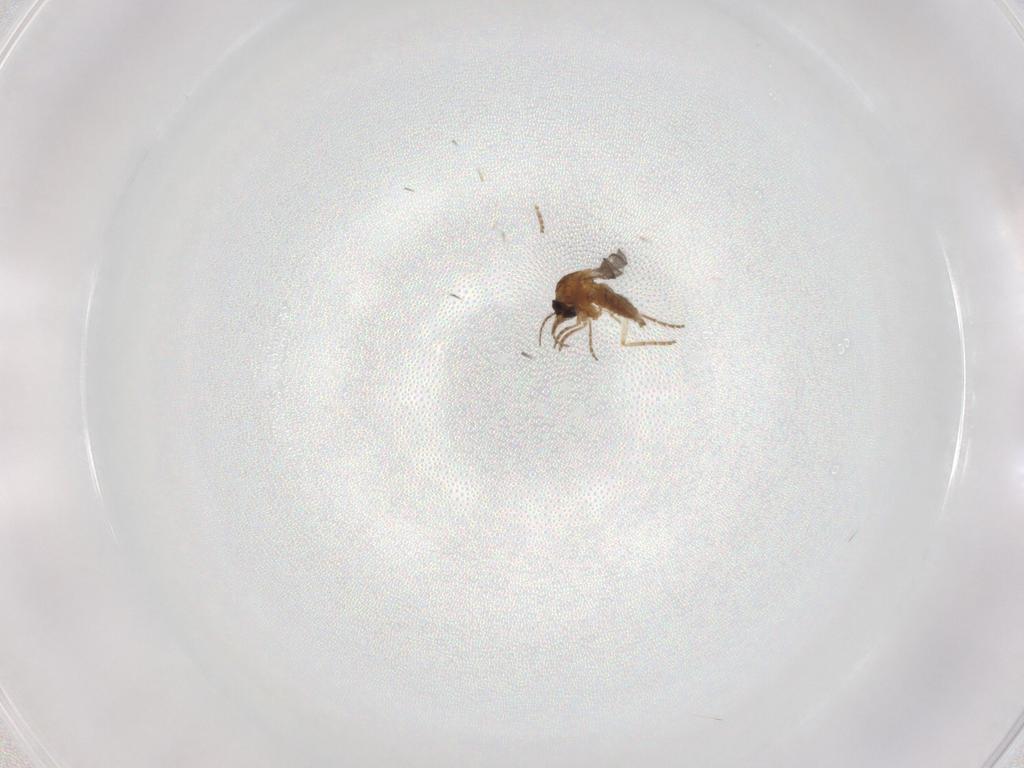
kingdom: Animalia
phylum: Arthropoda
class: Insecta
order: Diptera
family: Ceratopogonidae
